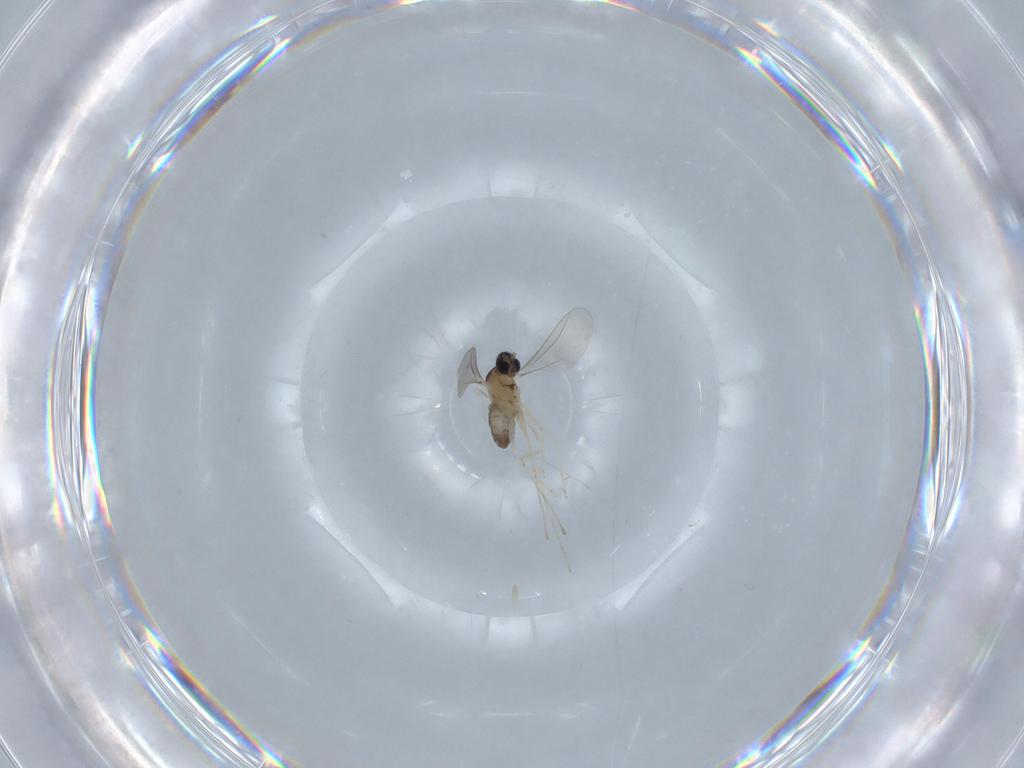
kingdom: Animalia
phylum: Arthropoda
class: Insecta
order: Diptera
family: Cecidomyiidae
